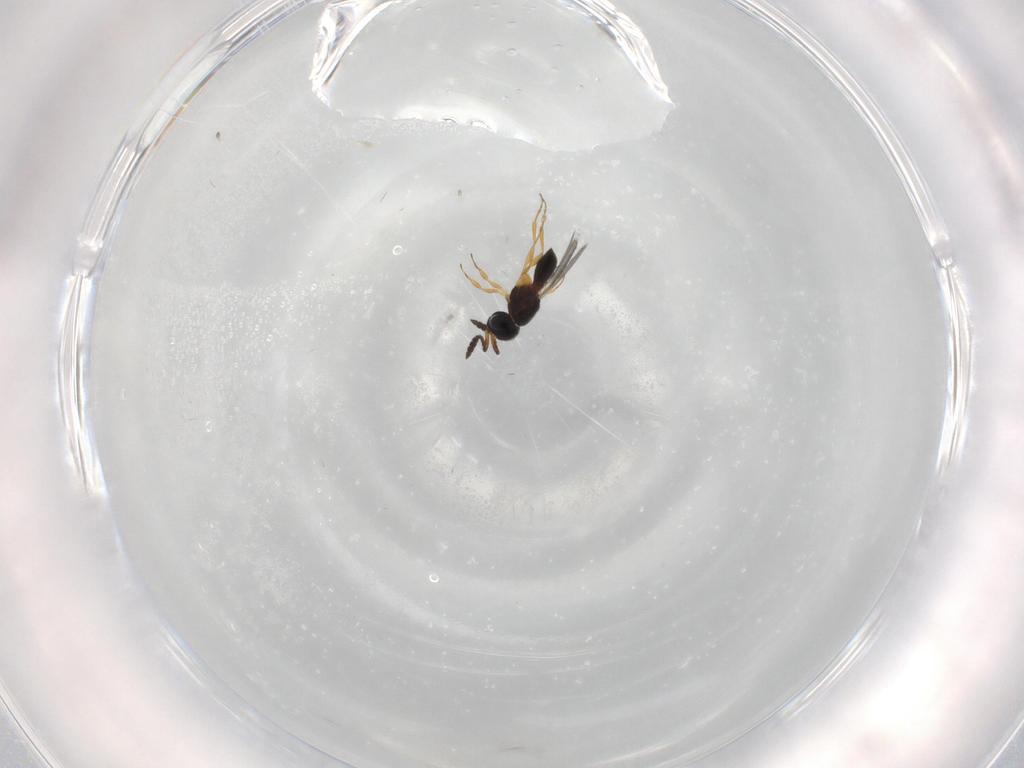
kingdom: Animalia
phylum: Arthropoda
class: Insecta
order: Hymenoptera
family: Scelionidae
